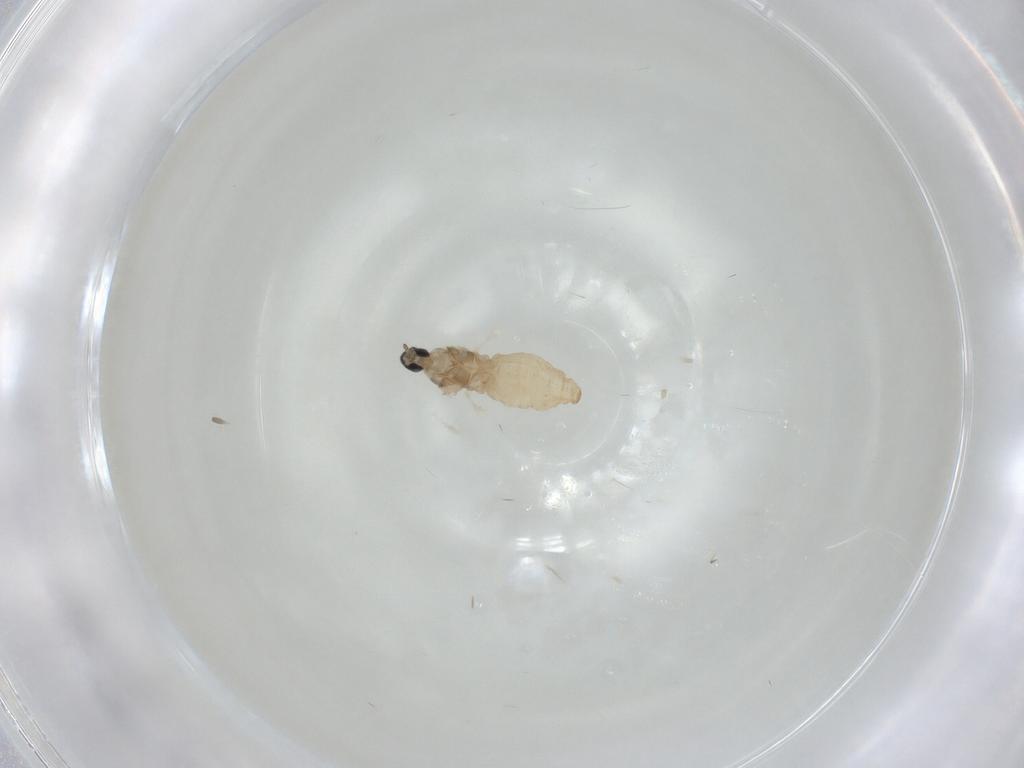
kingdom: Animalia
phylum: Arthropoda
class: Insecta
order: Diptera
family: Cecidomyiidae
